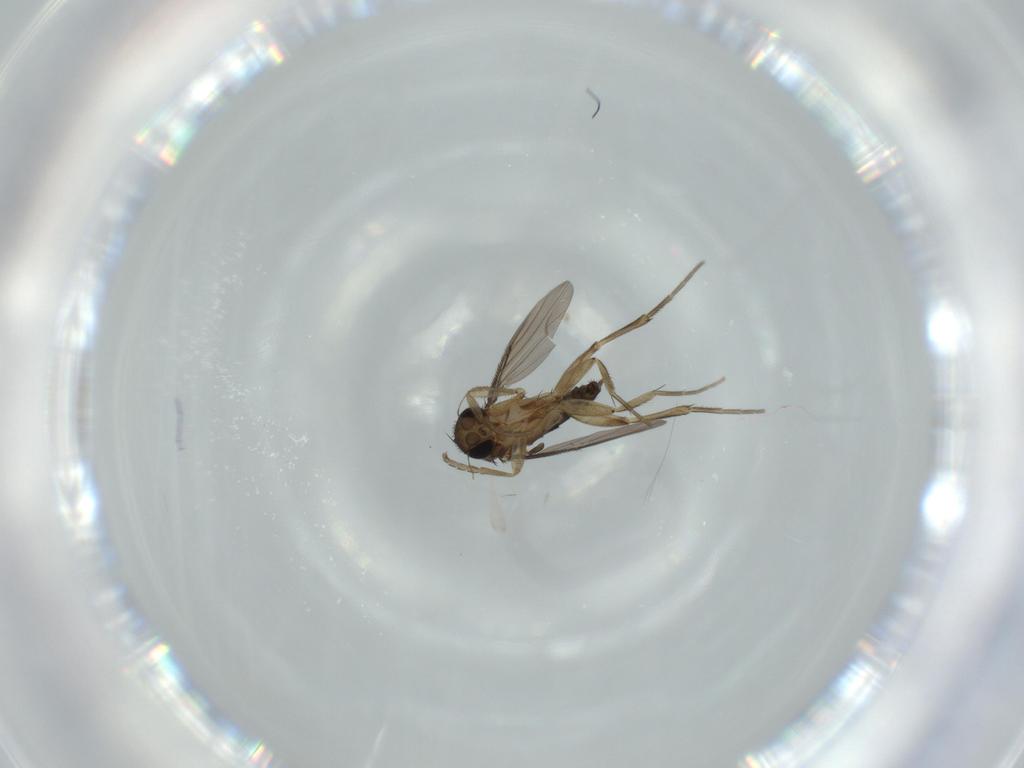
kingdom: Animalia
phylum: Arthropoda
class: Insecta
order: Diptera
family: Phoridae
